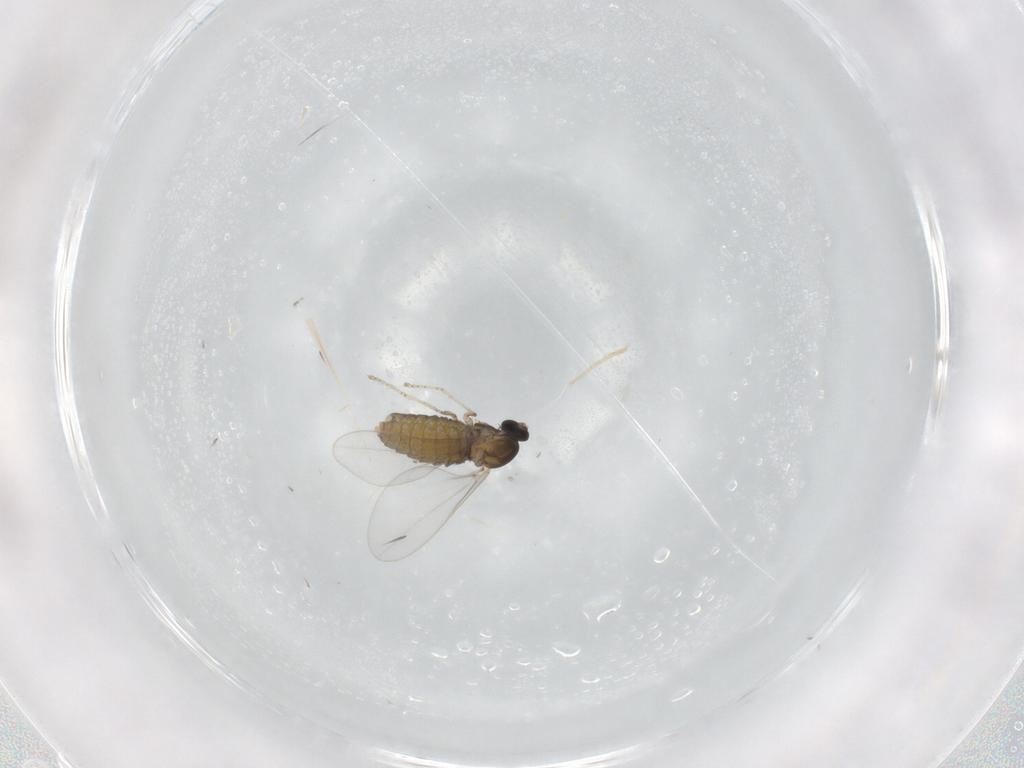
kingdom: Animalia
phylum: Arthropoda
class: Insecta
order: Diptera
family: Cecidomyiidae
